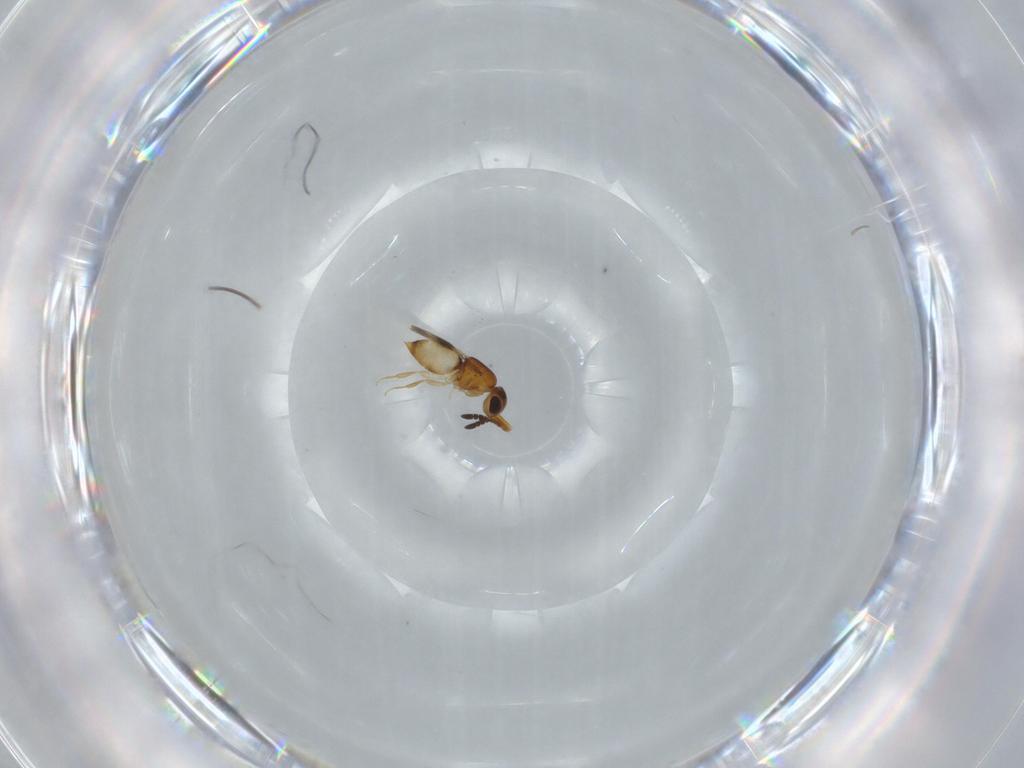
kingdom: Animalia
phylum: Arthropoda
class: Insecta
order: Hymenoptera
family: Ceraphronidae
